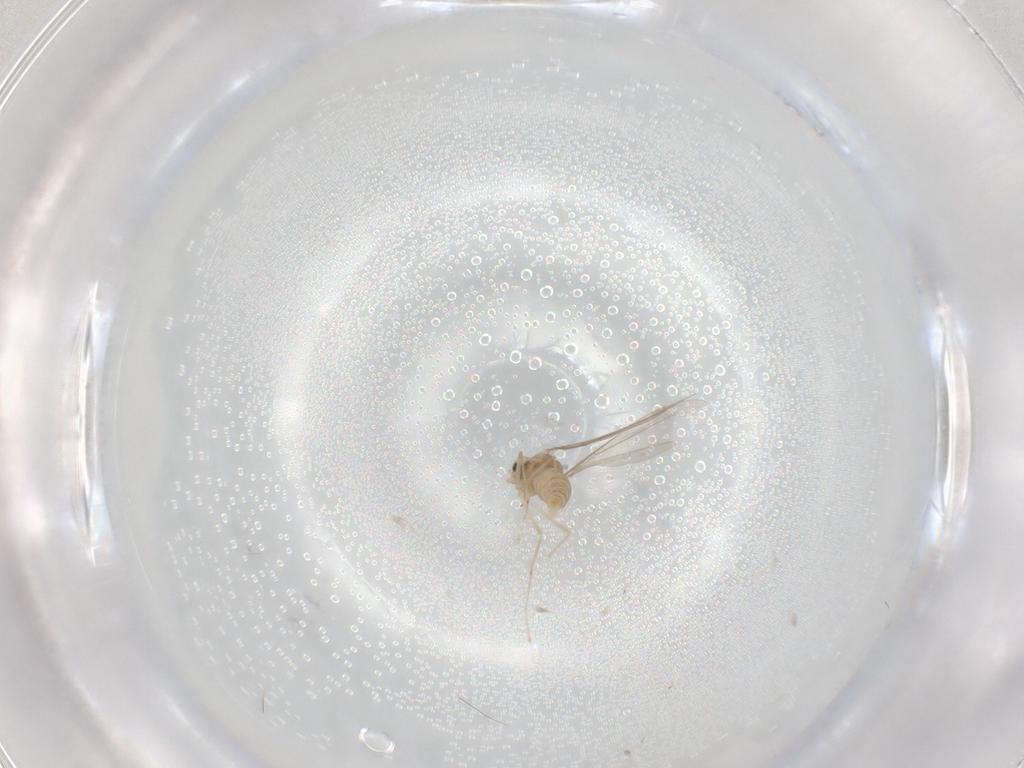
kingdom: Animalia
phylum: Arthropoda
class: Insecta
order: Diptera
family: Cecidomyiidae
